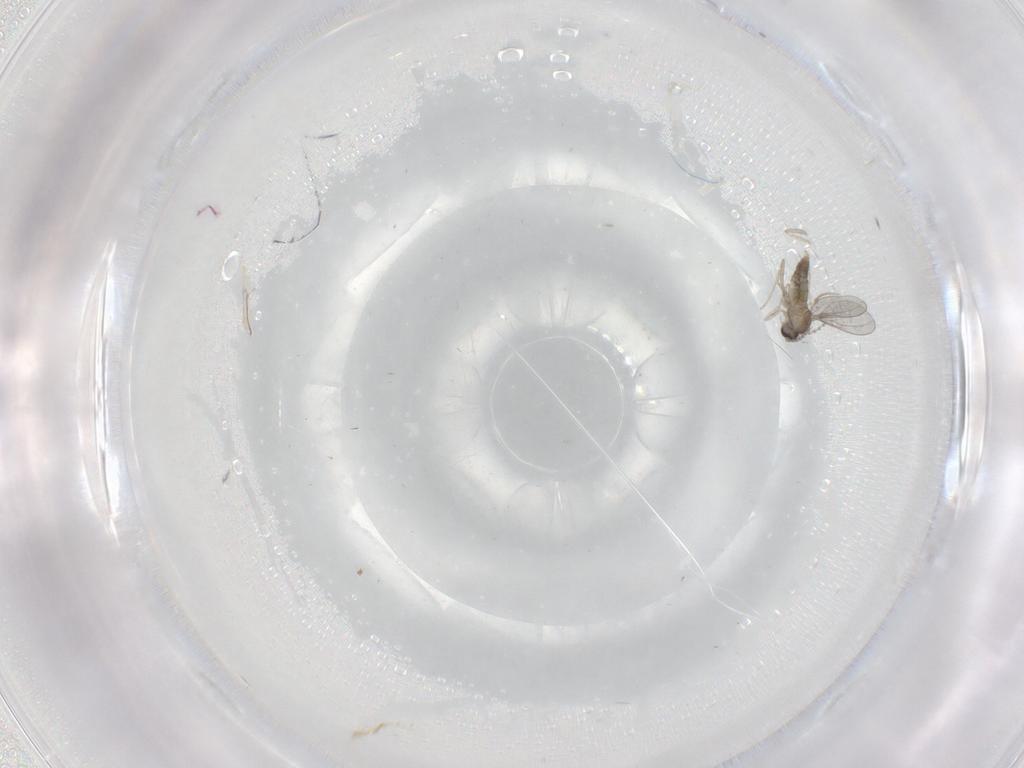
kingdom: Animalia
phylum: Arthropoda
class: Insecta
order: Diptera
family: Cecidomyiidae
